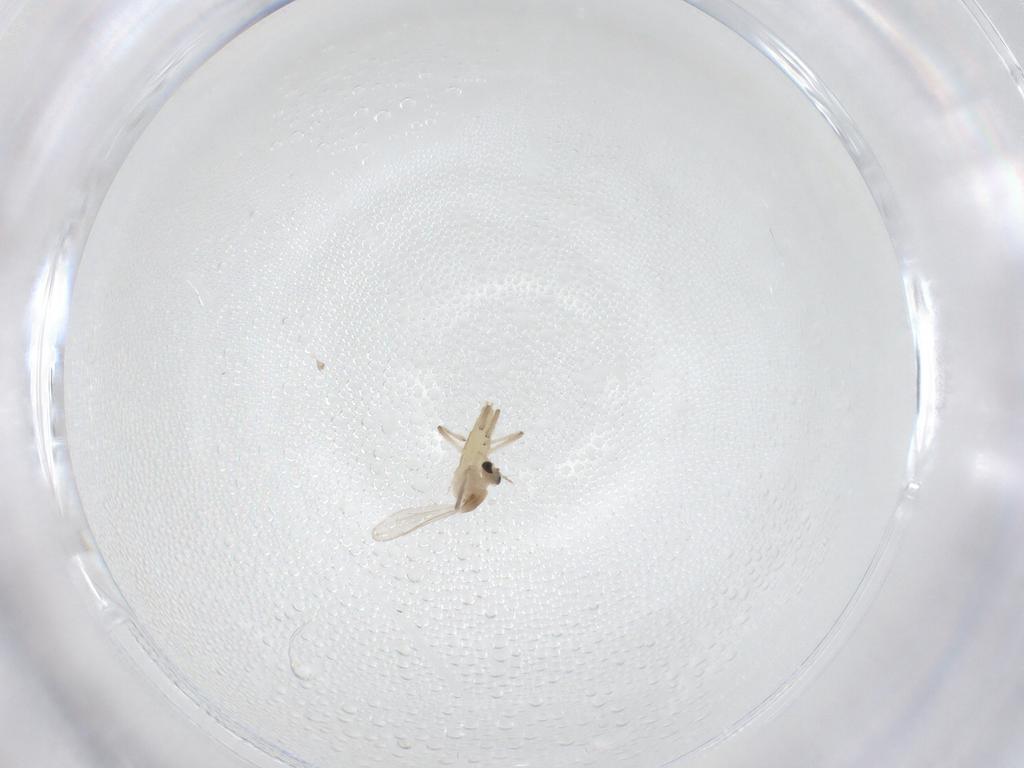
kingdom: Animalia
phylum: Arthropoda
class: Insecta
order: Diptera
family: Chironomidae
